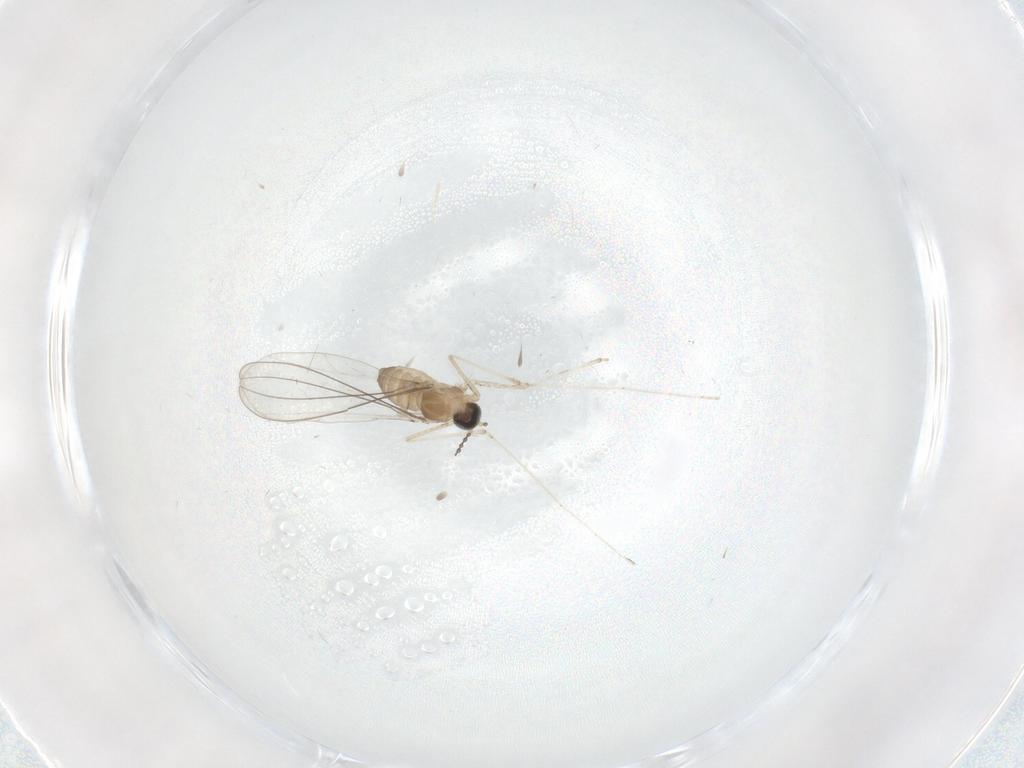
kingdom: Animalia
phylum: Arthropoda
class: Insecta
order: Diptera
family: Cecidomyiidae
